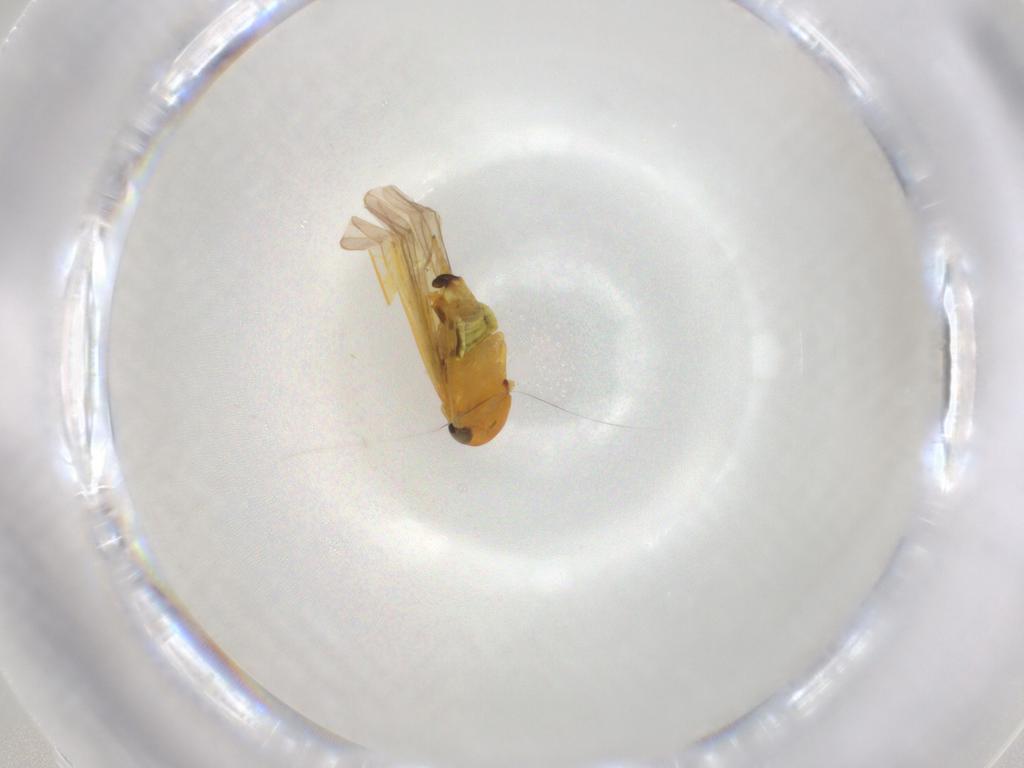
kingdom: Animalia
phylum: Arthropoda
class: Insecta
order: Hemiptera
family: Cicadellidae
